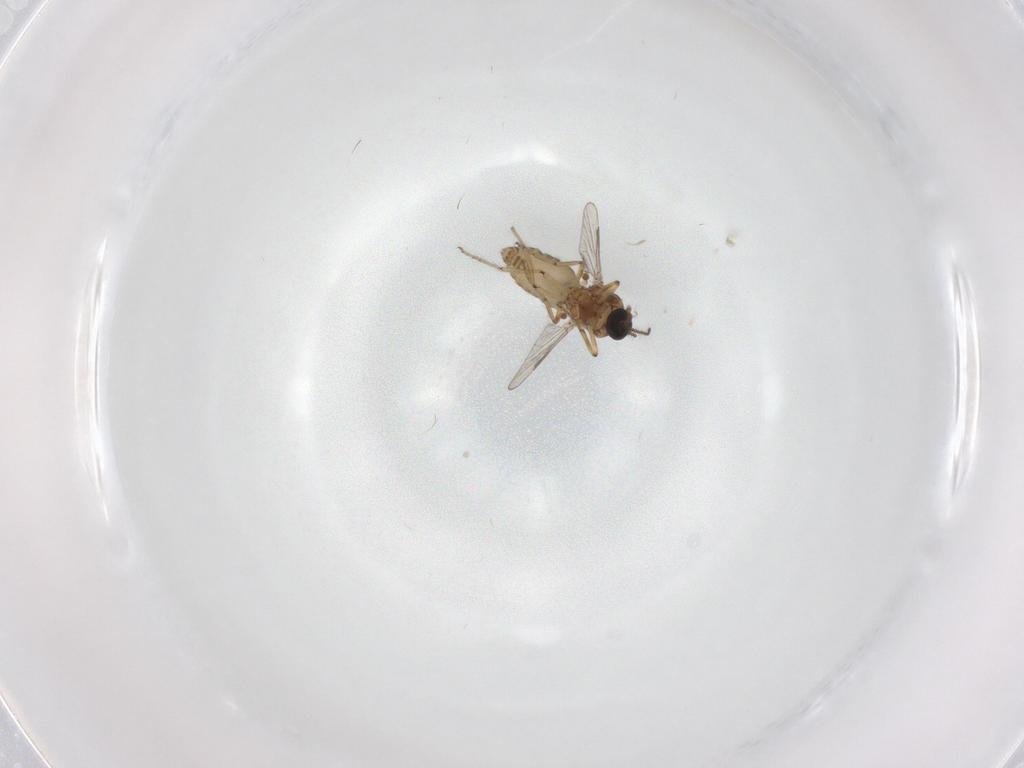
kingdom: Animalia
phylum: Arthropoda
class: Insecta
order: Diptera
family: Ceratopogonidae
